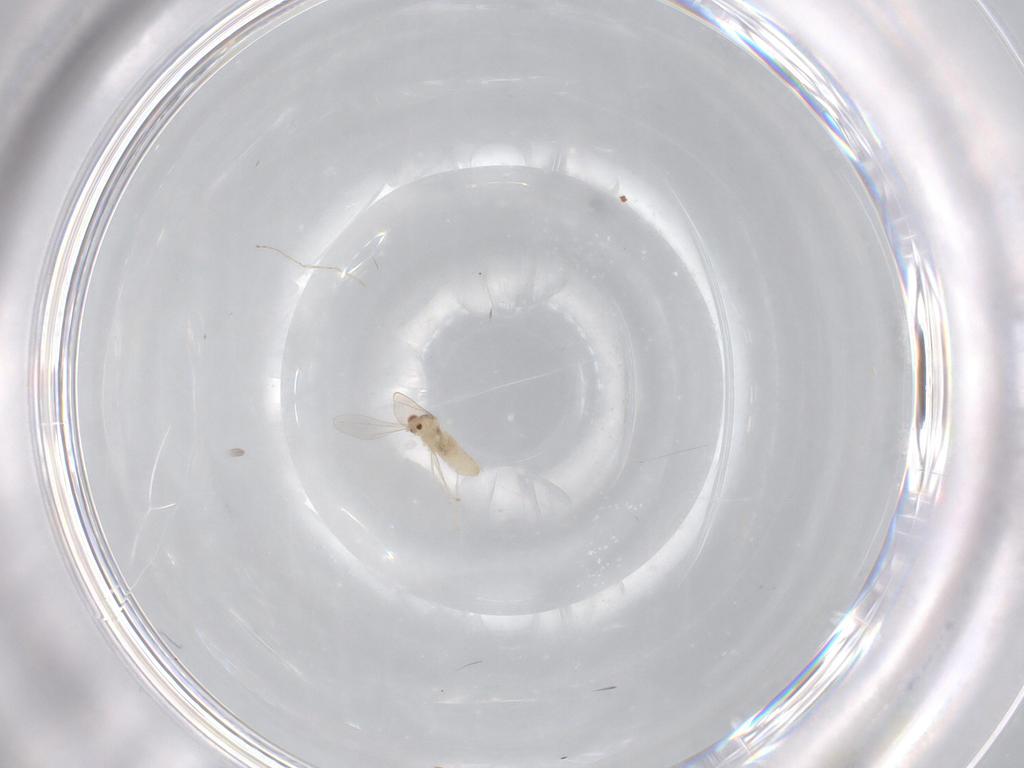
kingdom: Animalia
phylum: Arthropoda
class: Insecta
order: Diptera
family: Cecidomyiidae
